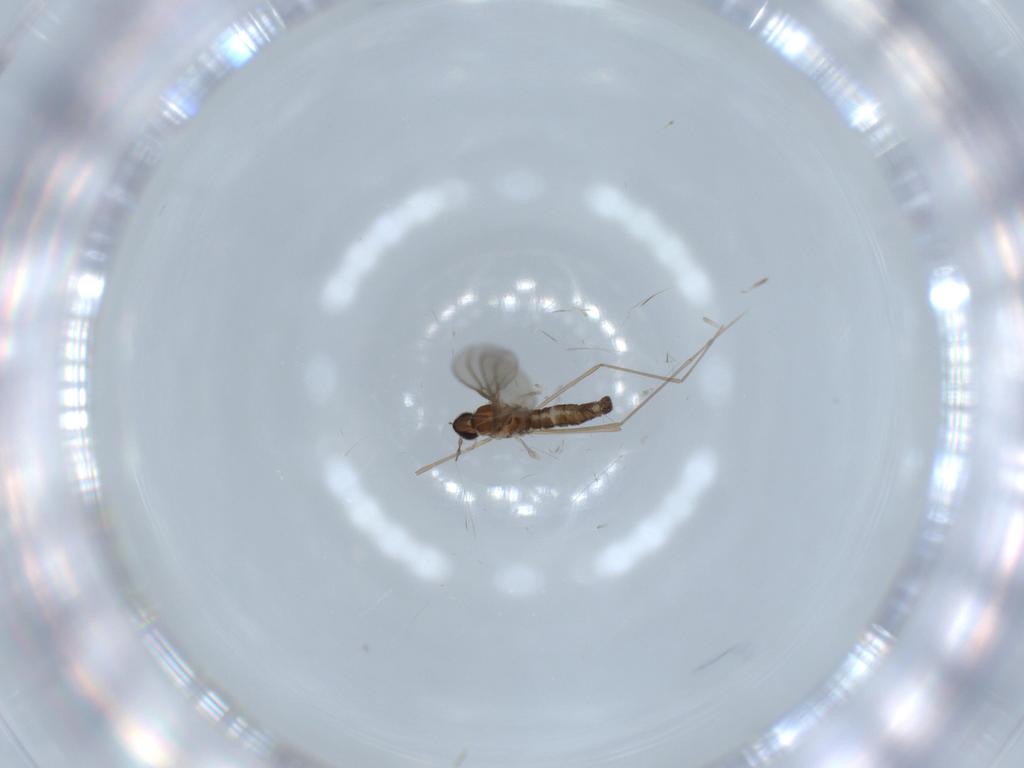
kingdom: Animalia
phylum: Arthropoda
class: Insecta
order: Diptera
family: Cecidomyiidae
